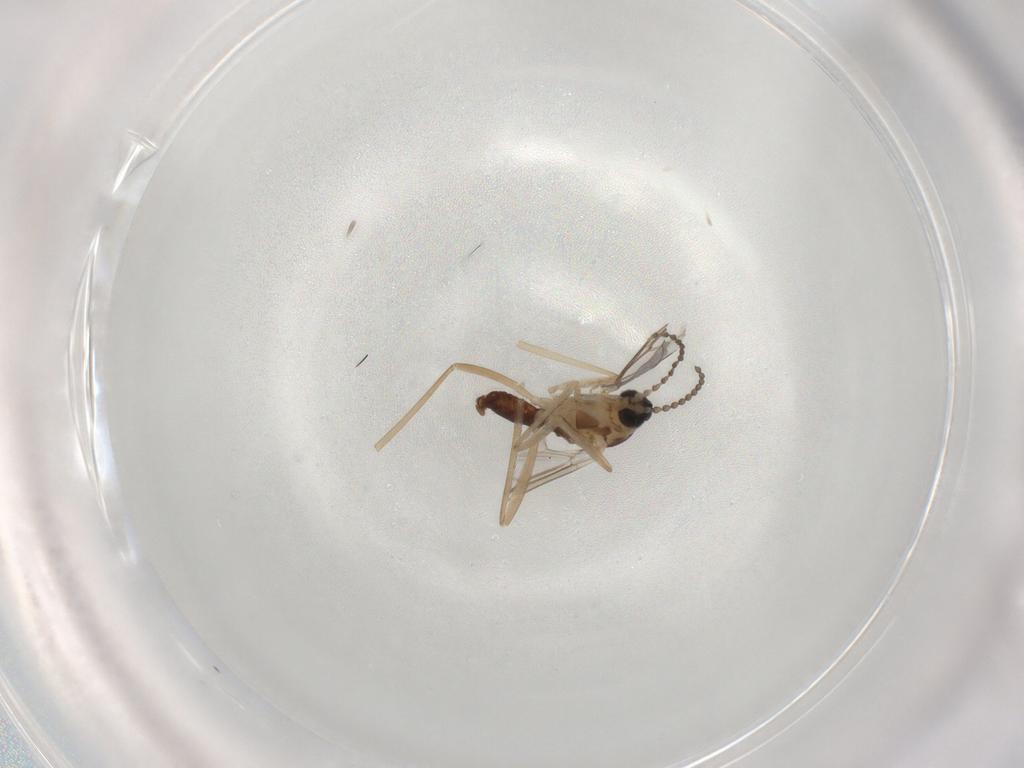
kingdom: Animalia
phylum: Arthropoda
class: Insecta
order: Diptera
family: Cecidomyiidae
